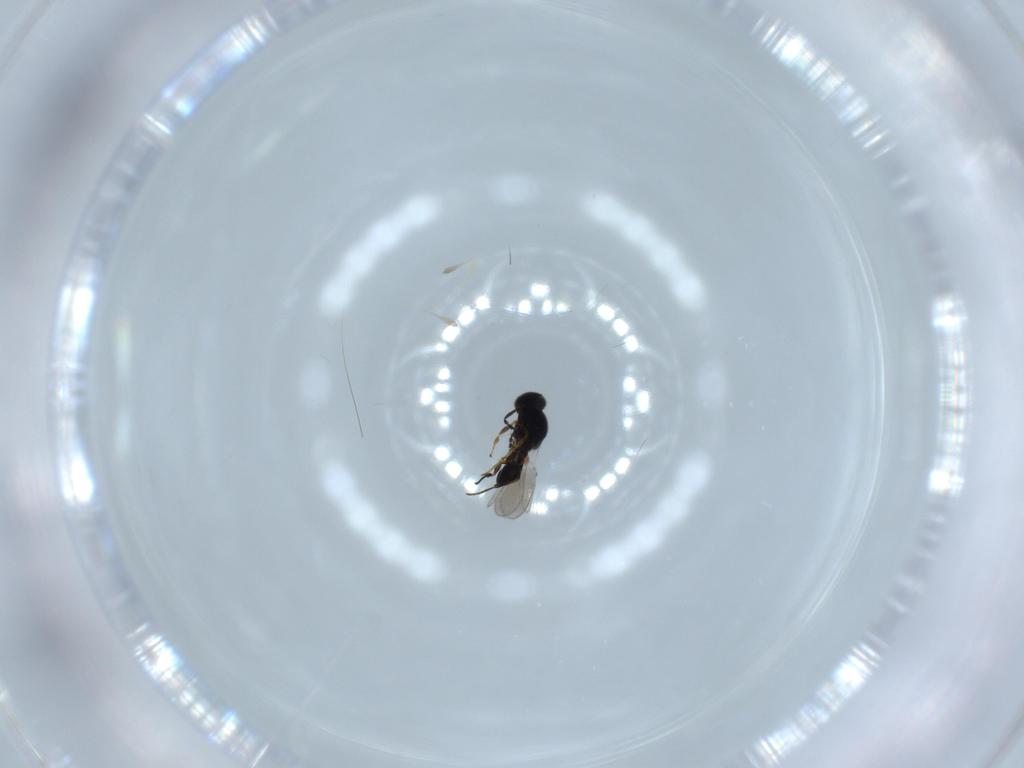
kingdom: Animalia
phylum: Arthropoda
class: Insecta
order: Hymenoptera
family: Platygastridae
